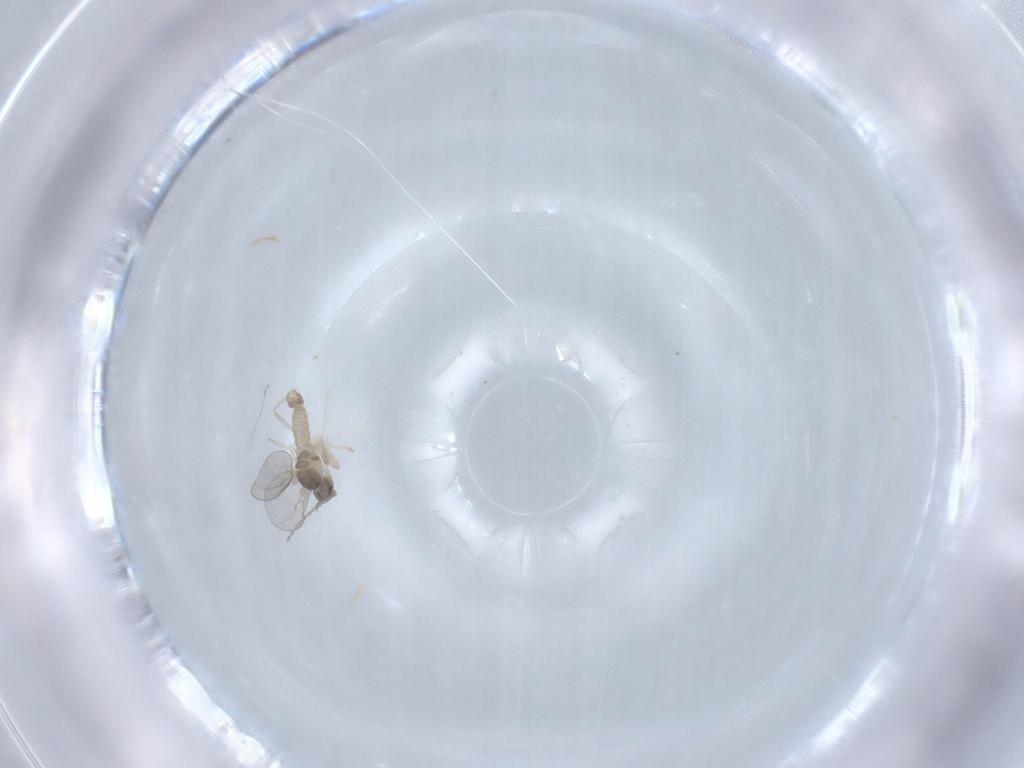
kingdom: Animalia
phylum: Arthropoda
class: Insecta
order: Diptera
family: Cecidomyiidae
